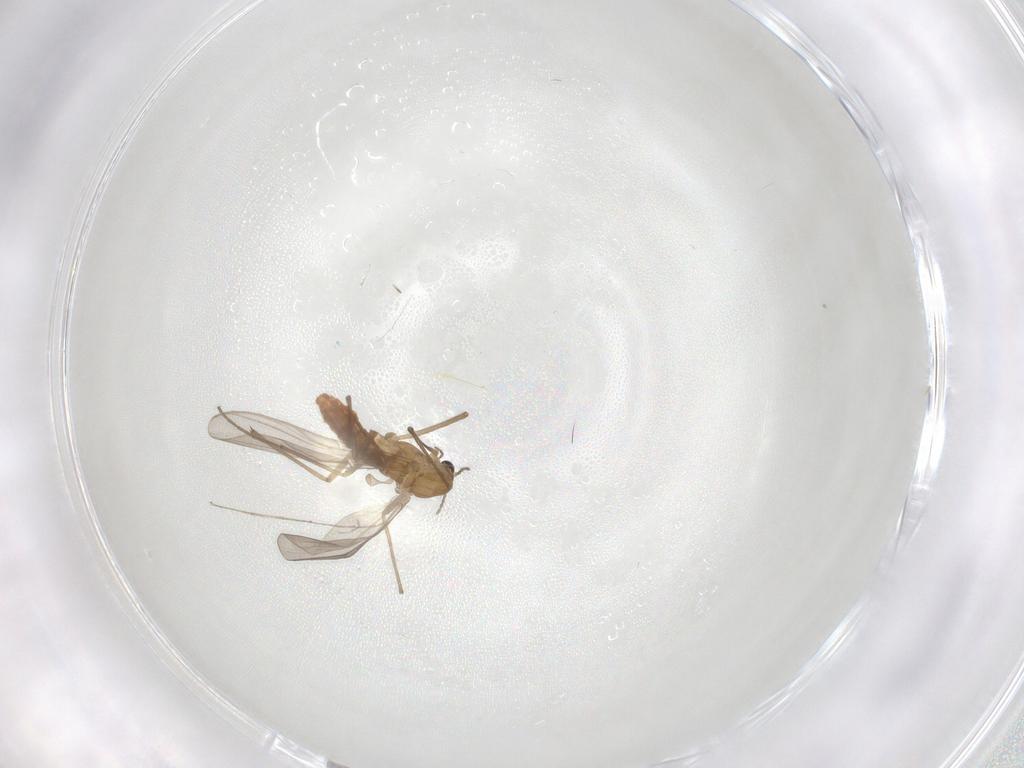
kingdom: Animalia
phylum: Arthropoda
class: Insecta
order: Diptera
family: Chironomidae
